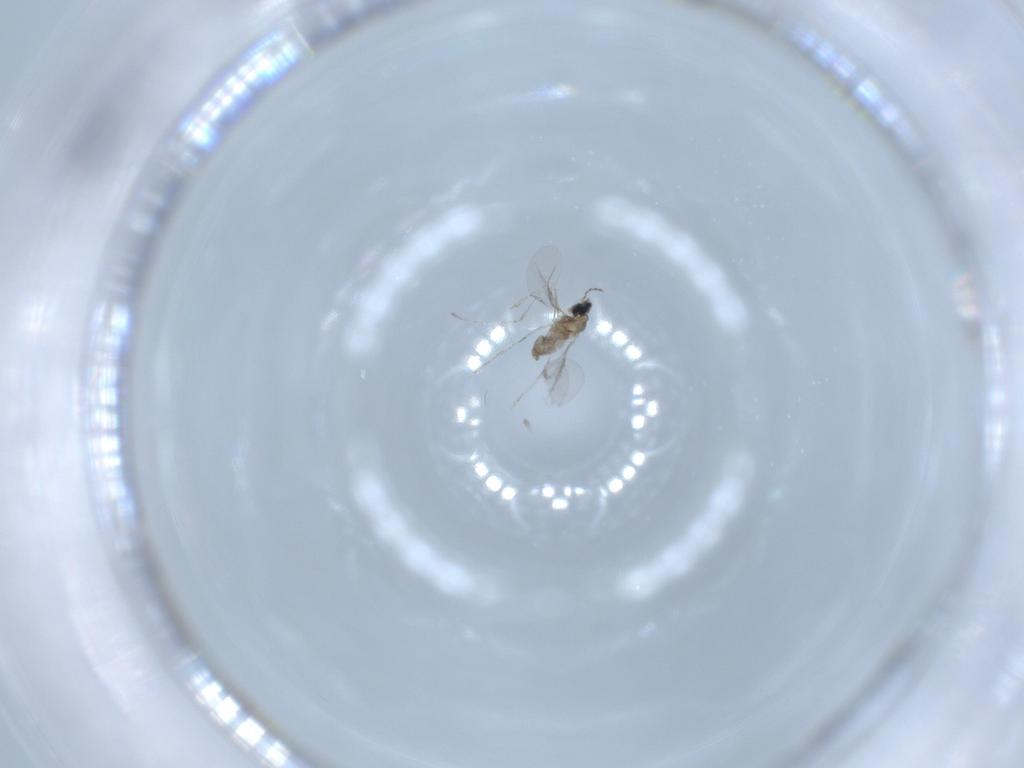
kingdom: Animalia
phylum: Arthropoda
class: Insecta
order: Diptera
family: Cecidomyiidae
